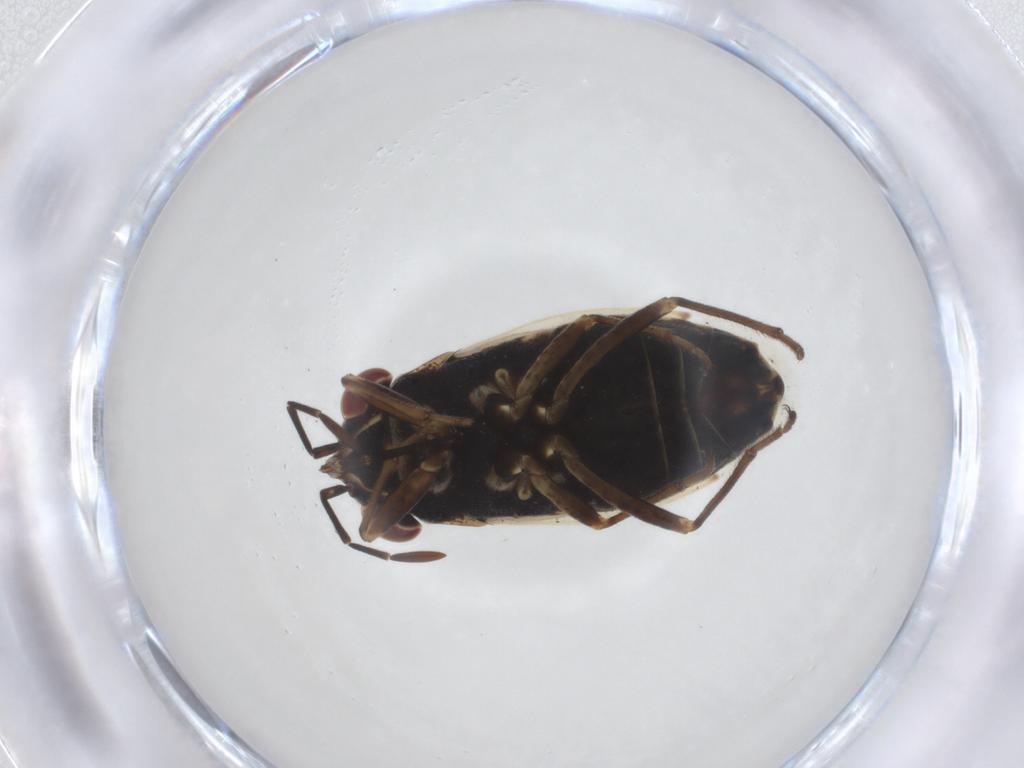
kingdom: Animalia
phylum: Arthropoda
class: Insecta
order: Hemiptera
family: Aphididae
